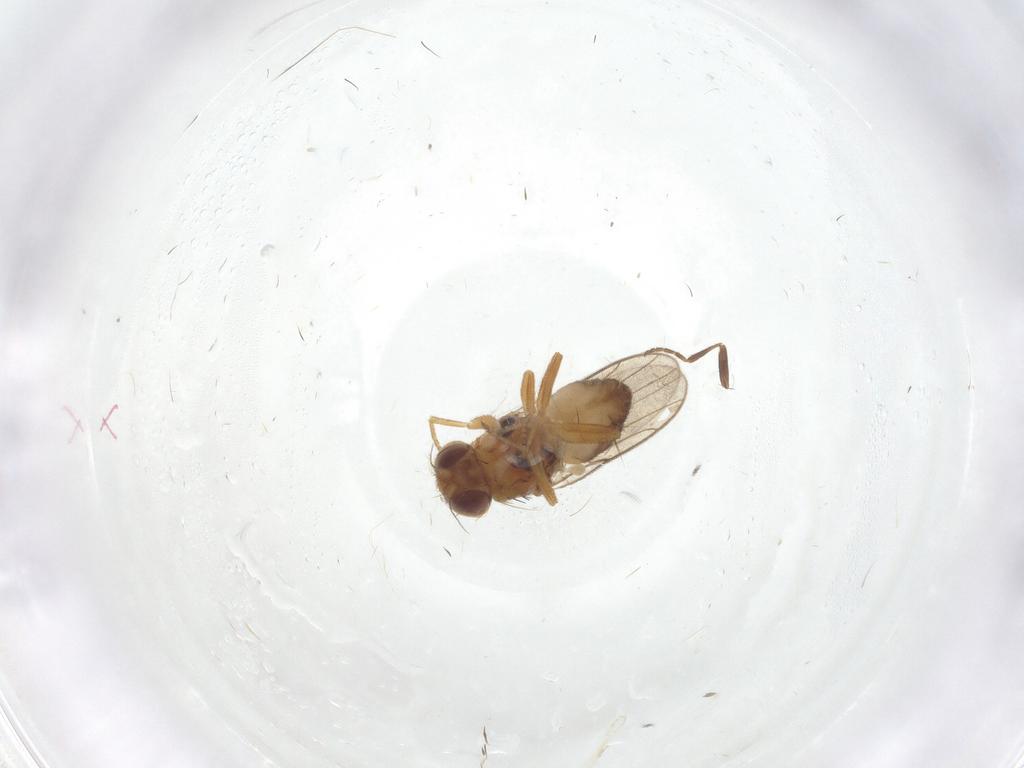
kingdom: Animalia
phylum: Arthropoda
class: Insecta
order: Diptera
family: Chloropidae
